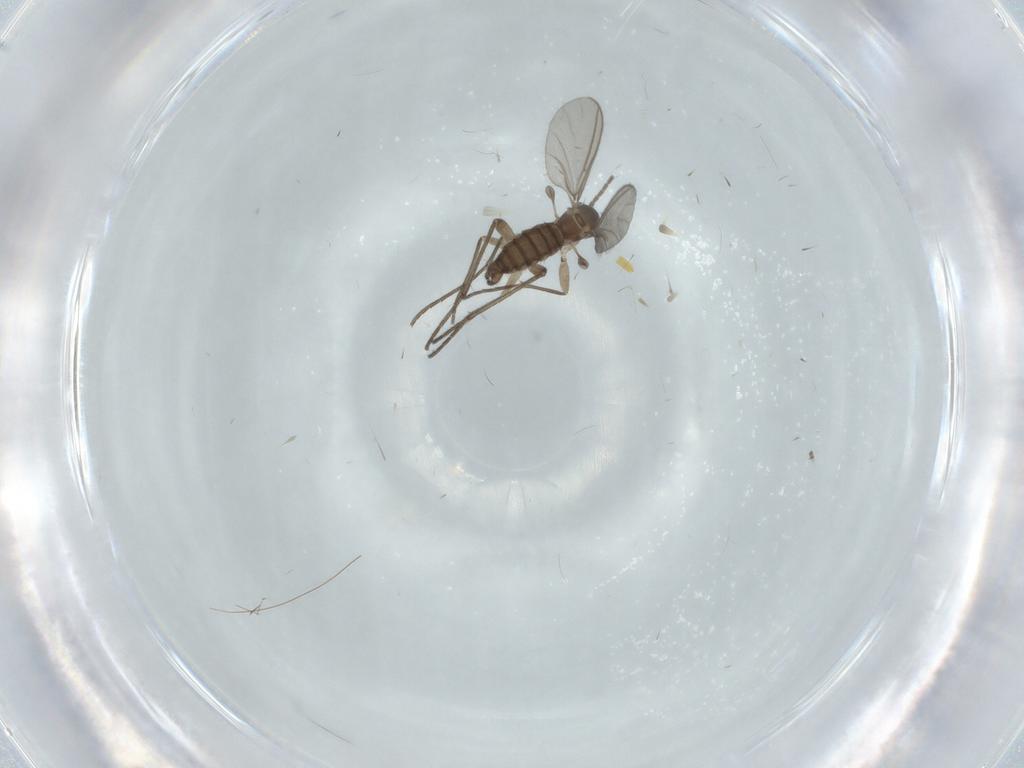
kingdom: Animalia
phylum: Arthropoda
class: Insecta
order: Diptera
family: Sciaridae
